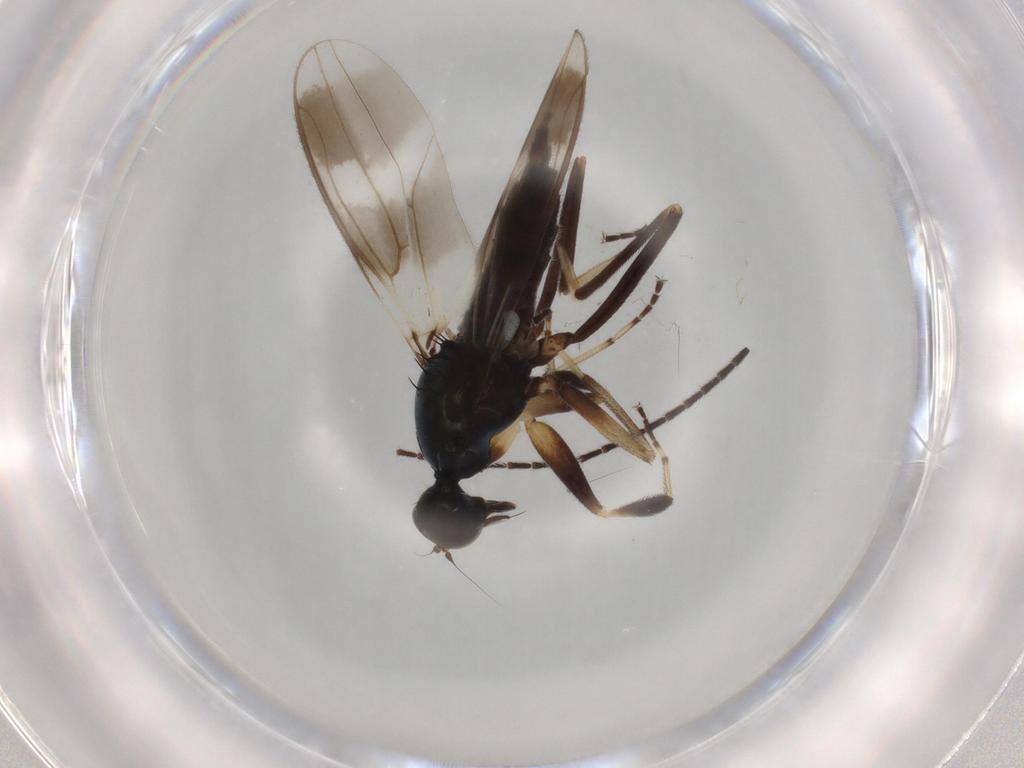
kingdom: Animalia
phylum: Arthropoda
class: Insecta
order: Diptera
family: Hybotidae
